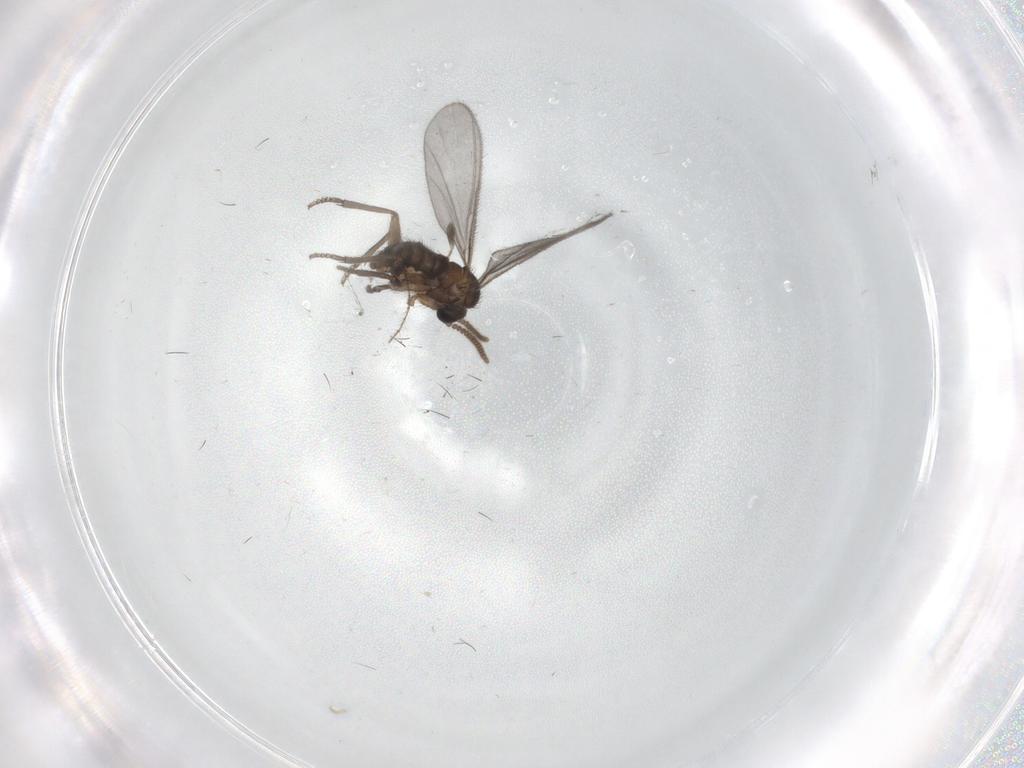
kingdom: Animalia
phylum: Arthropoda
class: Insecta
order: Diptera
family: Sciaridae
